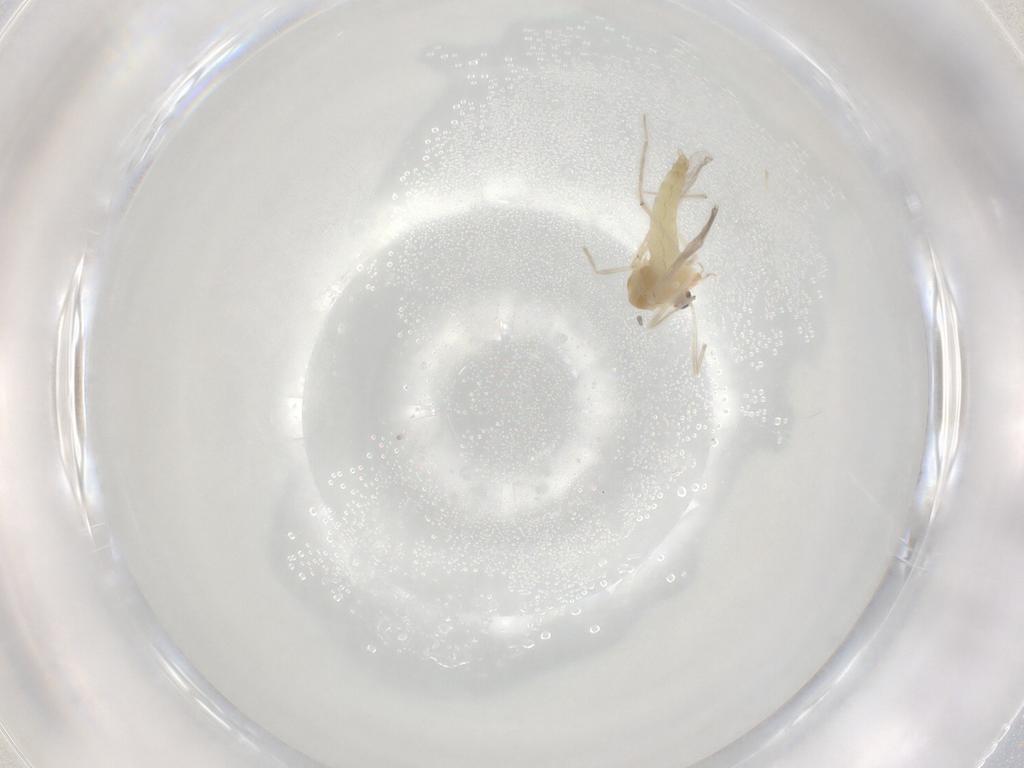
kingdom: Animalia
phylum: Arthropoda
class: Insecta
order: Diptera
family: Chironomidae
